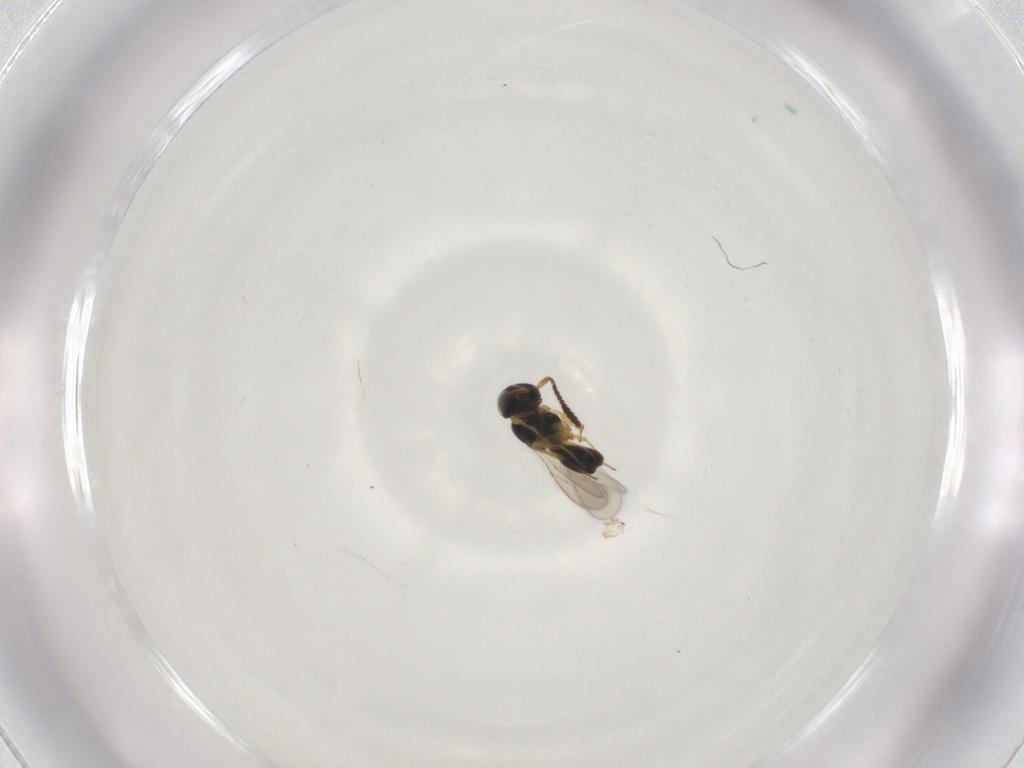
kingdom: Animalia
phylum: Arthropoda
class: Insecta
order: Hymenoptera
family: Scelionidae
